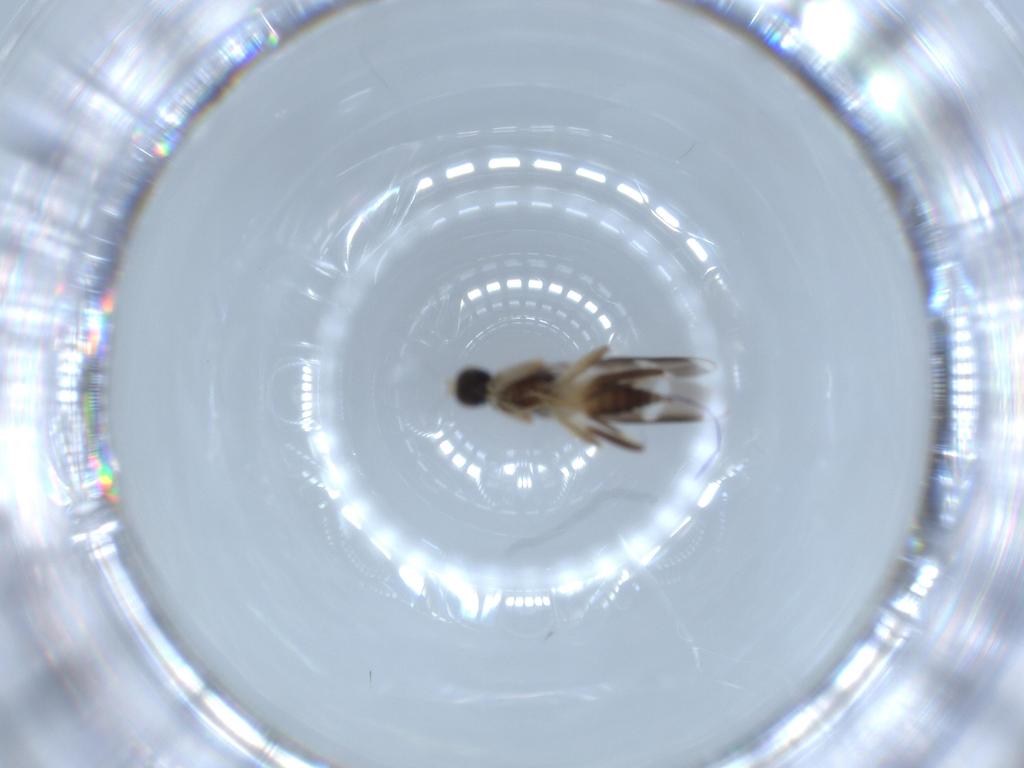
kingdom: Animalia
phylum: Arthropoda
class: Insecta
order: Diptera
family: Hybotidae
